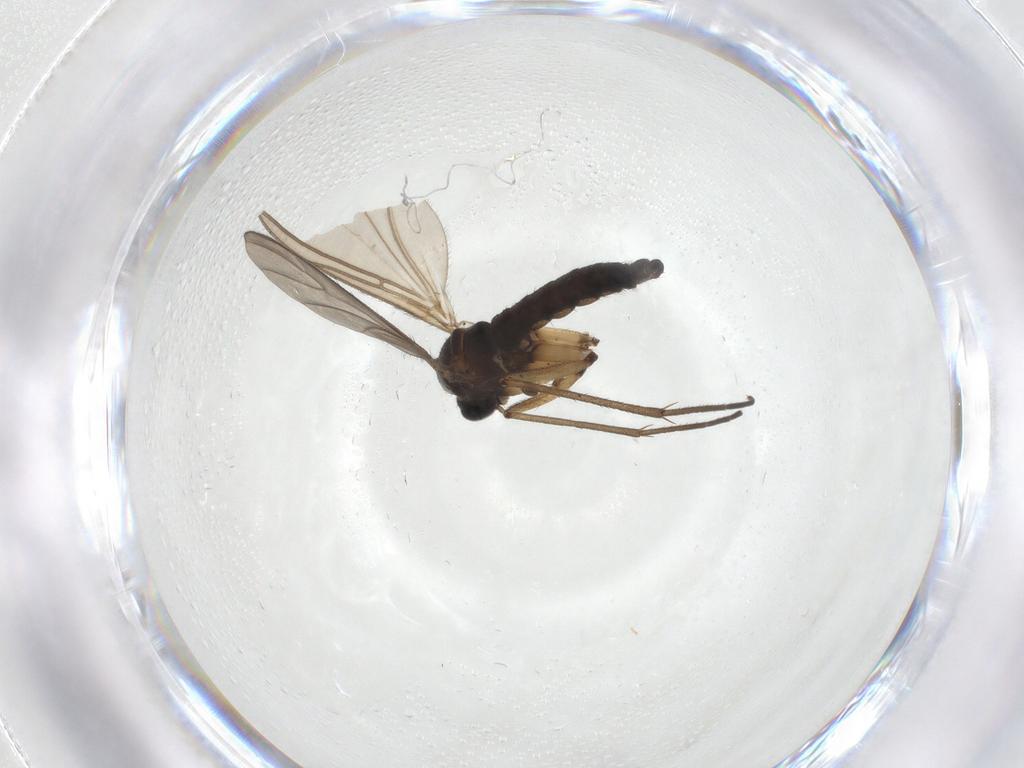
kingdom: Animalia
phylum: Arthropoda
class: Insecta
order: Diptera
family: Sciaridae
